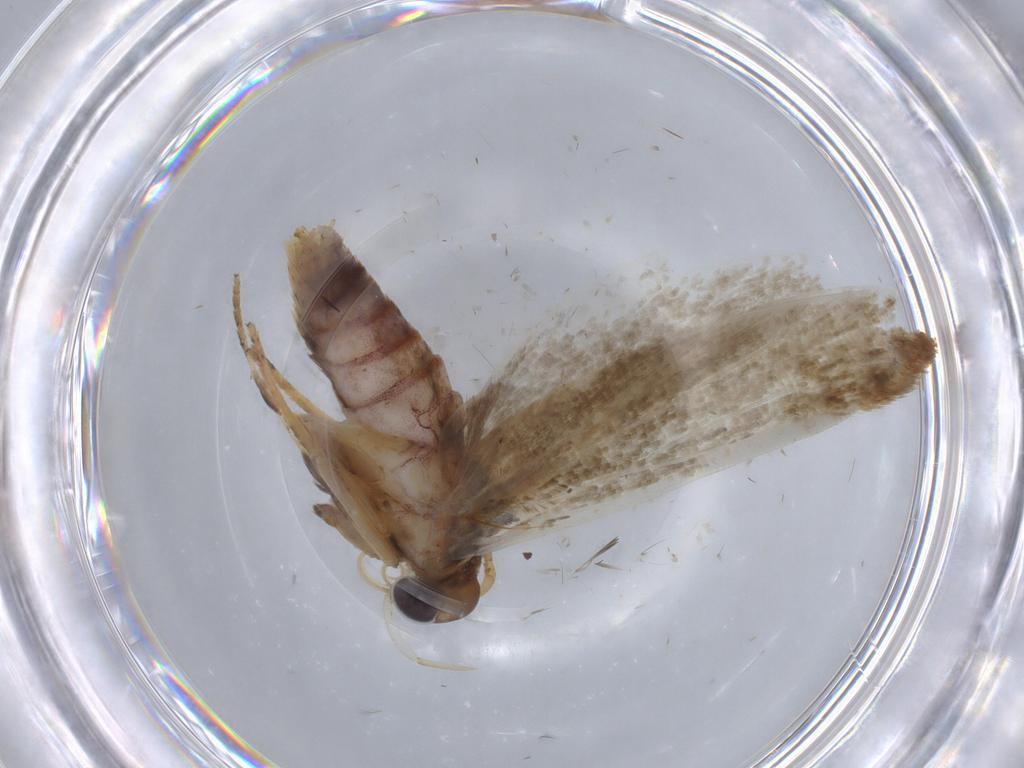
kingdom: Animalia
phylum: Arthropoda
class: Insecta
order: Lepidoptera
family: Blastobasidae
